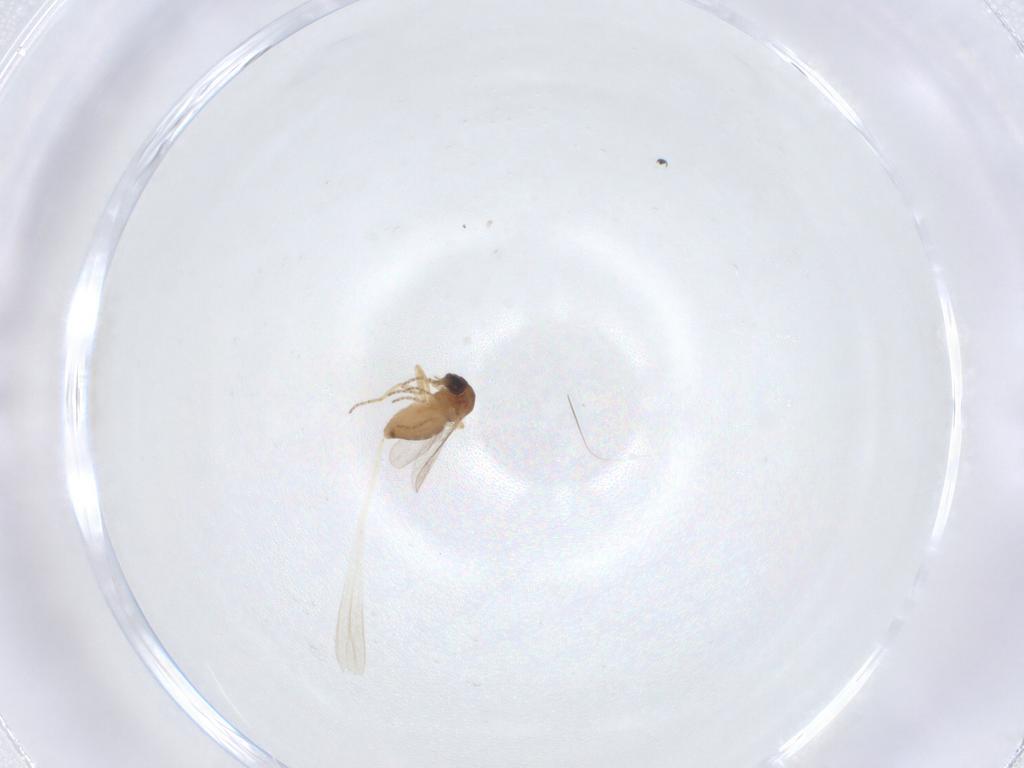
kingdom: Animalia
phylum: Arthropoda
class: Insecta
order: Diptera
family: Ceratopogonidae
